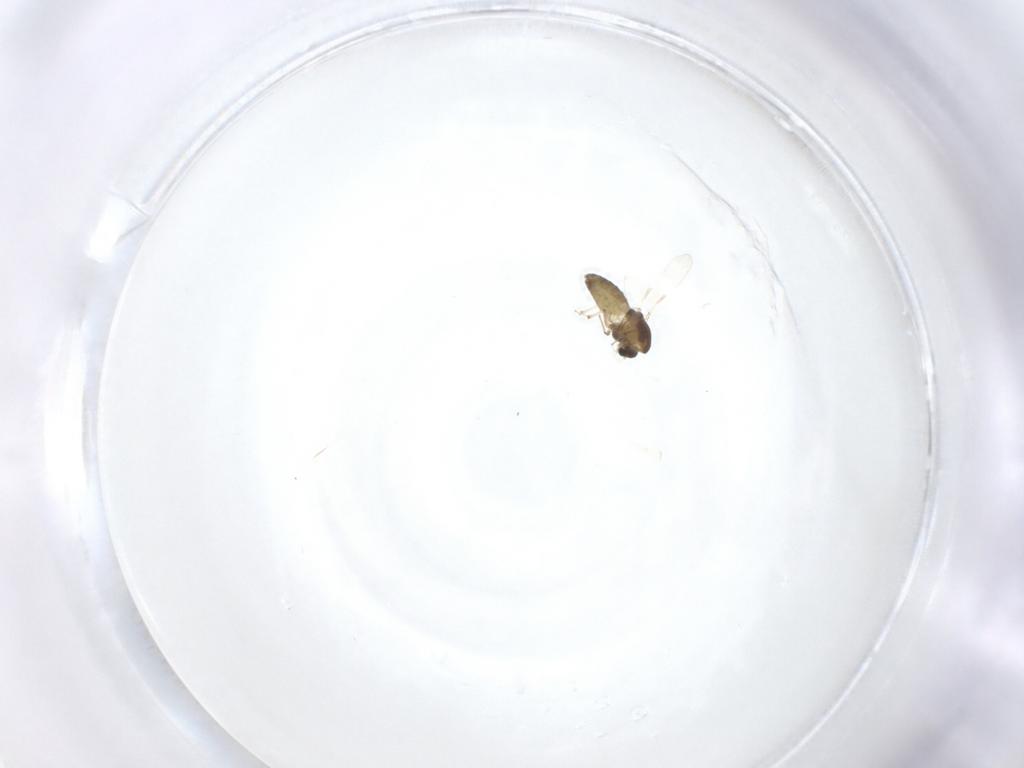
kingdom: Animalia
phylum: Arthropoda
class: Insecta
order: Diptera
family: Chironomidae
